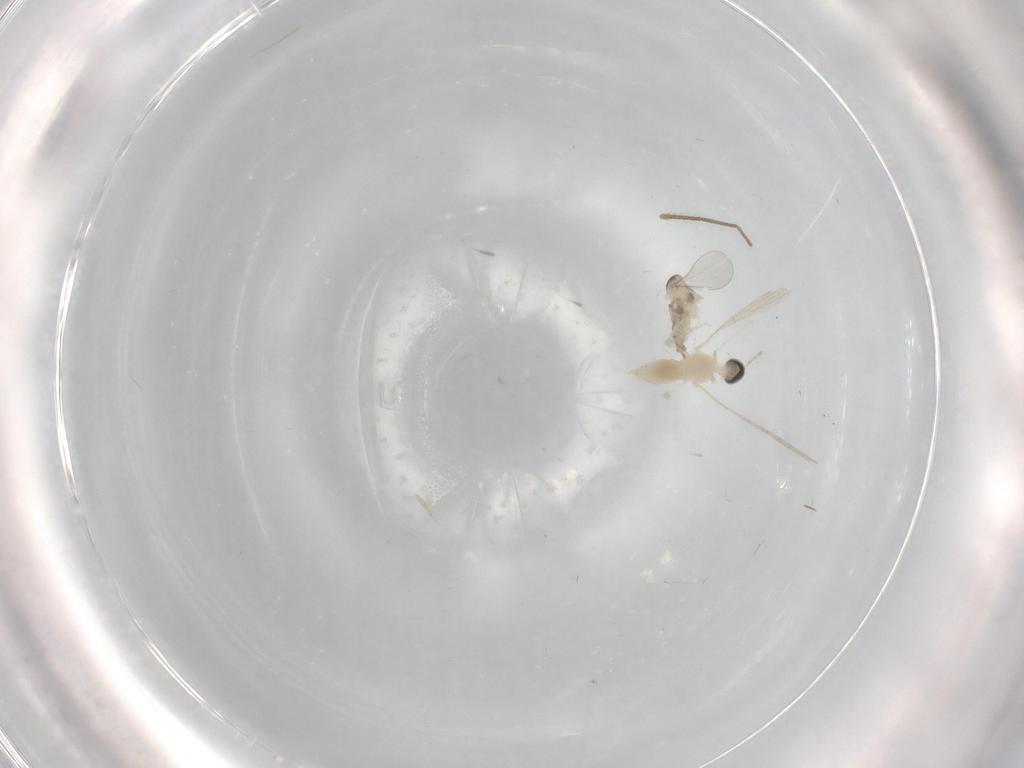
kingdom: Animalia
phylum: Arthropoda
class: Insecta
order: Diptera
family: Cecidomyiidae
